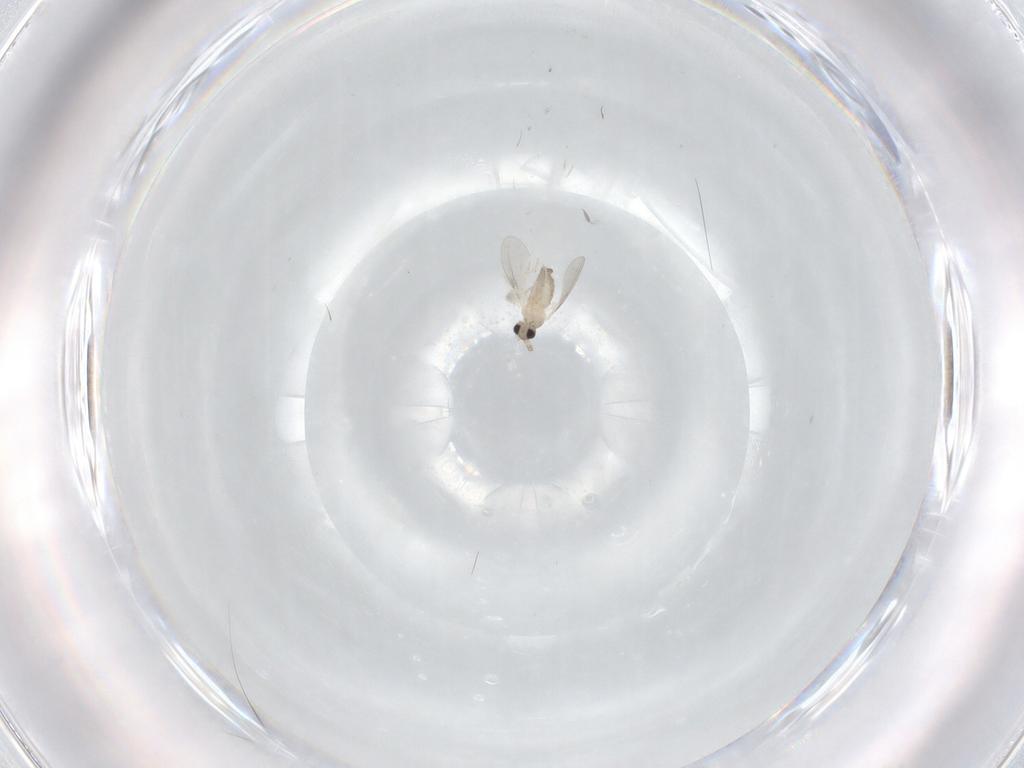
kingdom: Animalia
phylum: Arthropoda
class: Insecta
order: Diptera
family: Cecidomyiidae
